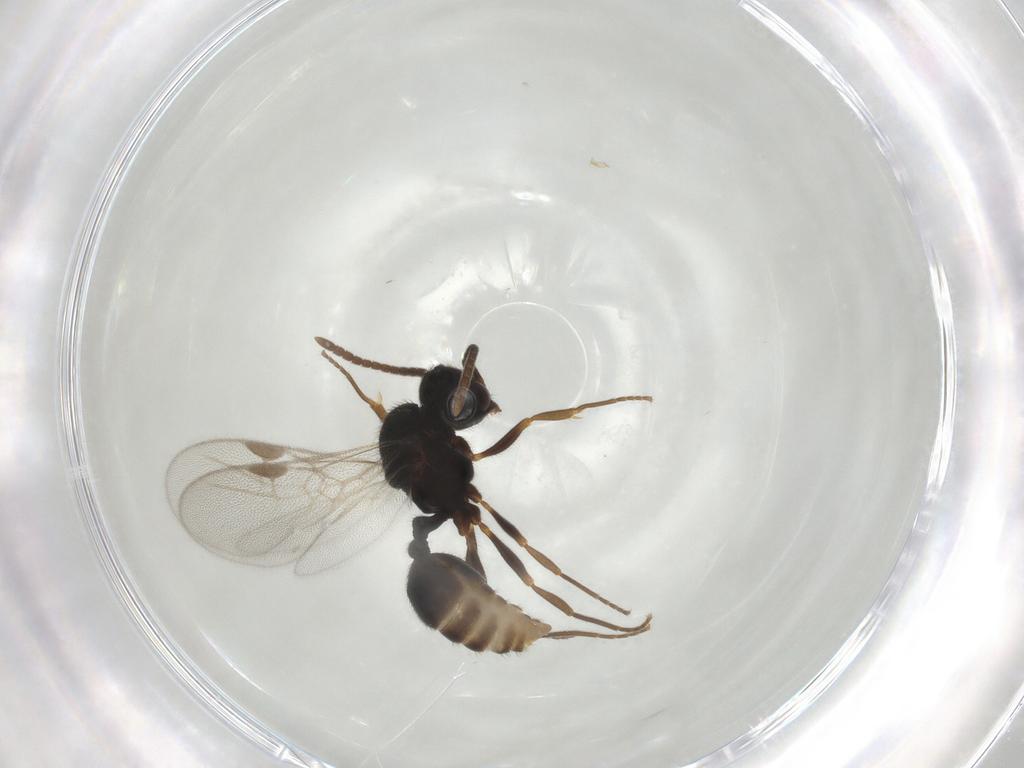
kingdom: Animalia
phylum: Arthropoda
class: Insecta
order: Hymenoptera
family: Formicidae
